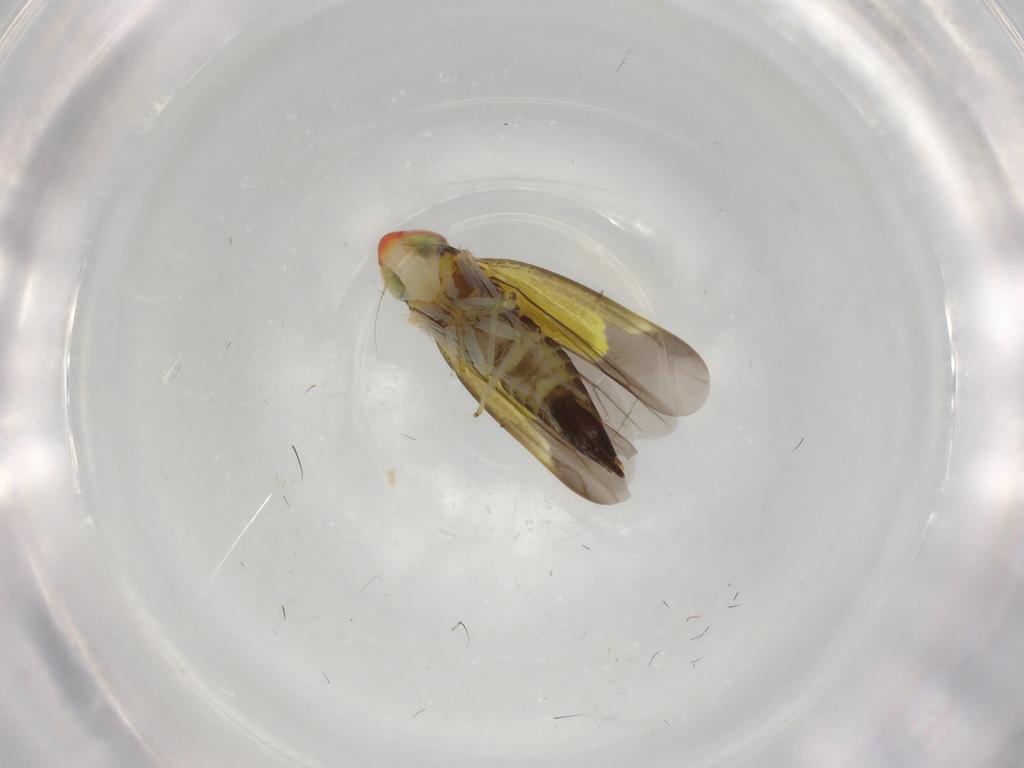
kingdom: Animalia
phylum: Arthropoda
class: Insecta
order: Hemiptera
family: Cicadellidae
